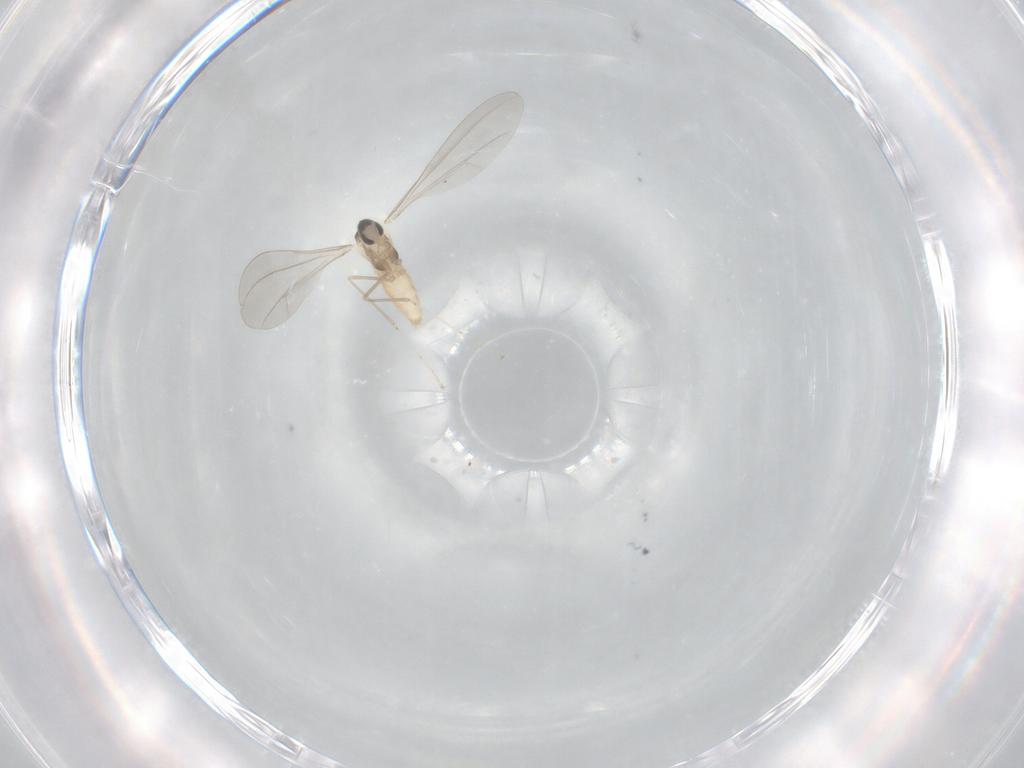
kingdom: Animalia
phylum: Arthropoda
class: Insecta
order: Diptera
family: Cecidomyiidae
